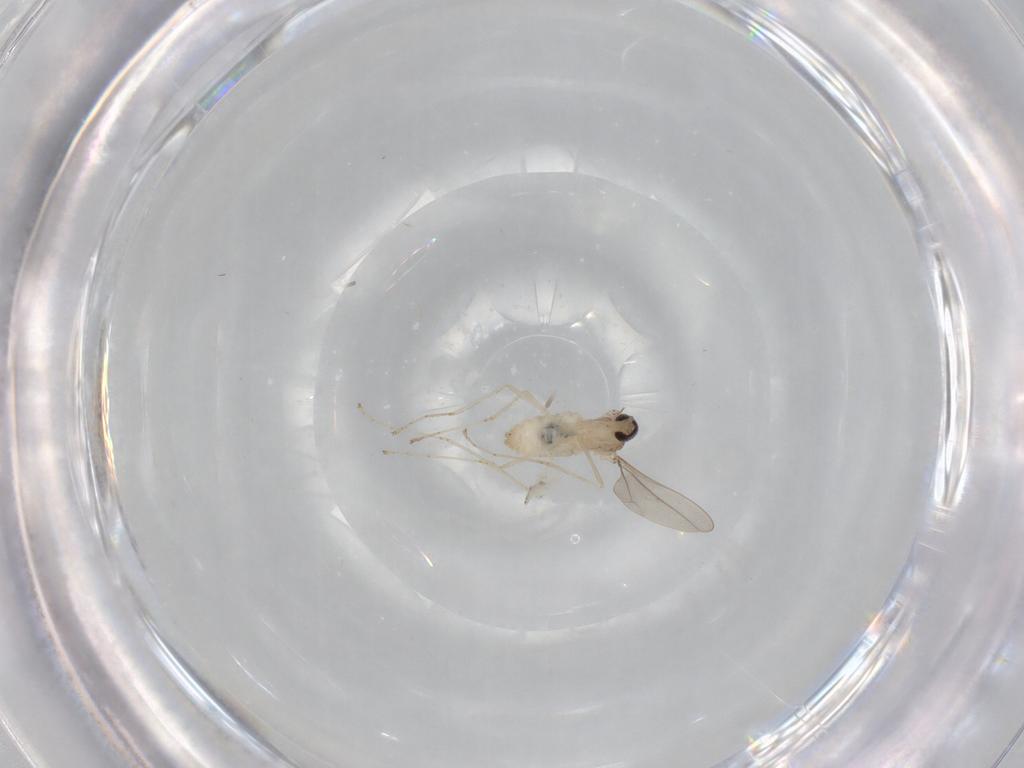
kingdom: Animalia
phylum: Arthropoda
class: Insecta
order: Diptera
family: Cecidomyiidae
